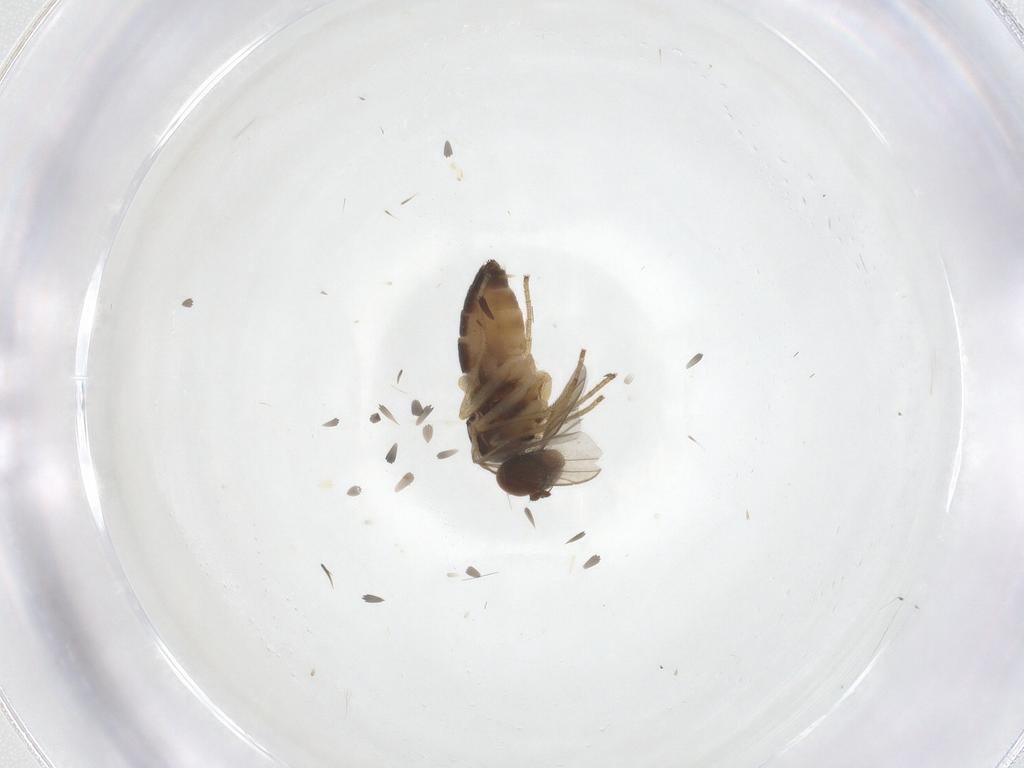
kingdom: Animalia
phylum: Arthropoda
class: Insecta
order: Diptera
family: Dolichopodidae
